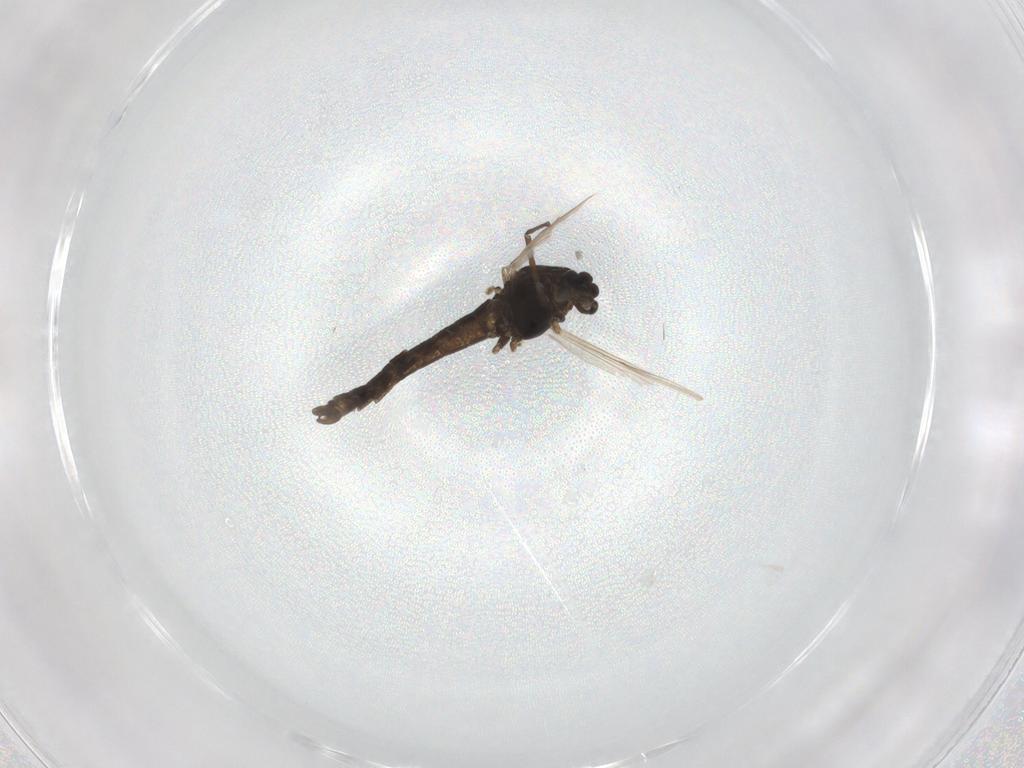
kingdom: Animalia
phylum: Arthropoda
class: Insecta
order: Diptera
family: Chironomidae
